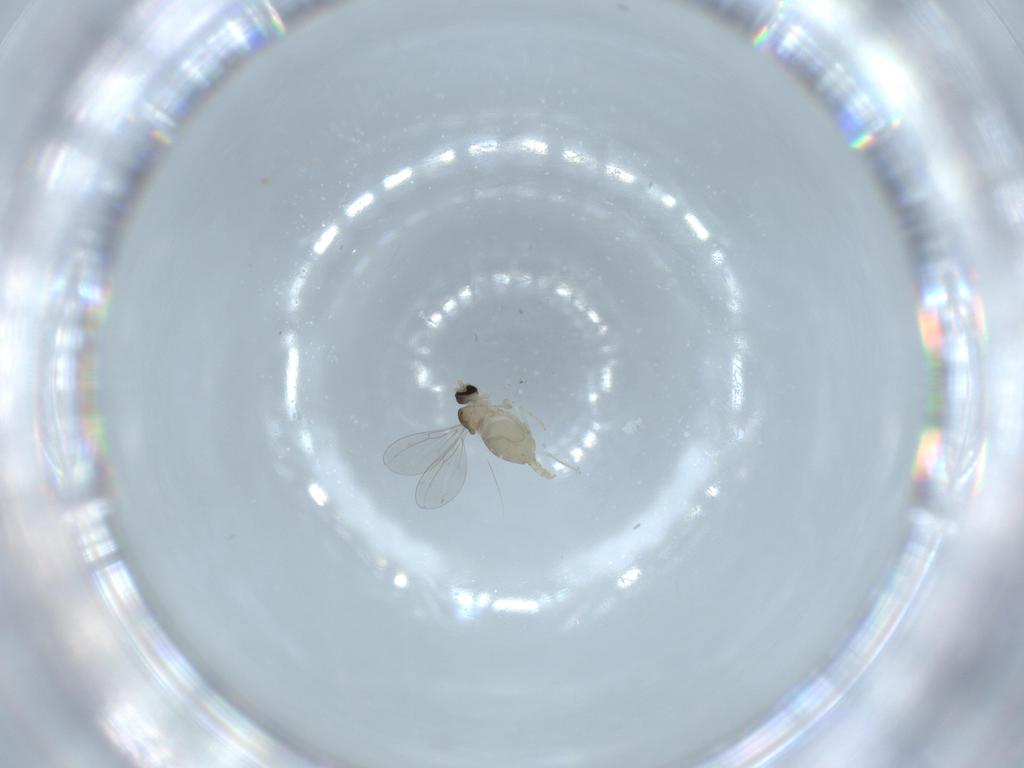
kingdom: Animalia
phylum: Arthropoda
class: Insecta
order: Diptera
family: Cecidomyiidae
